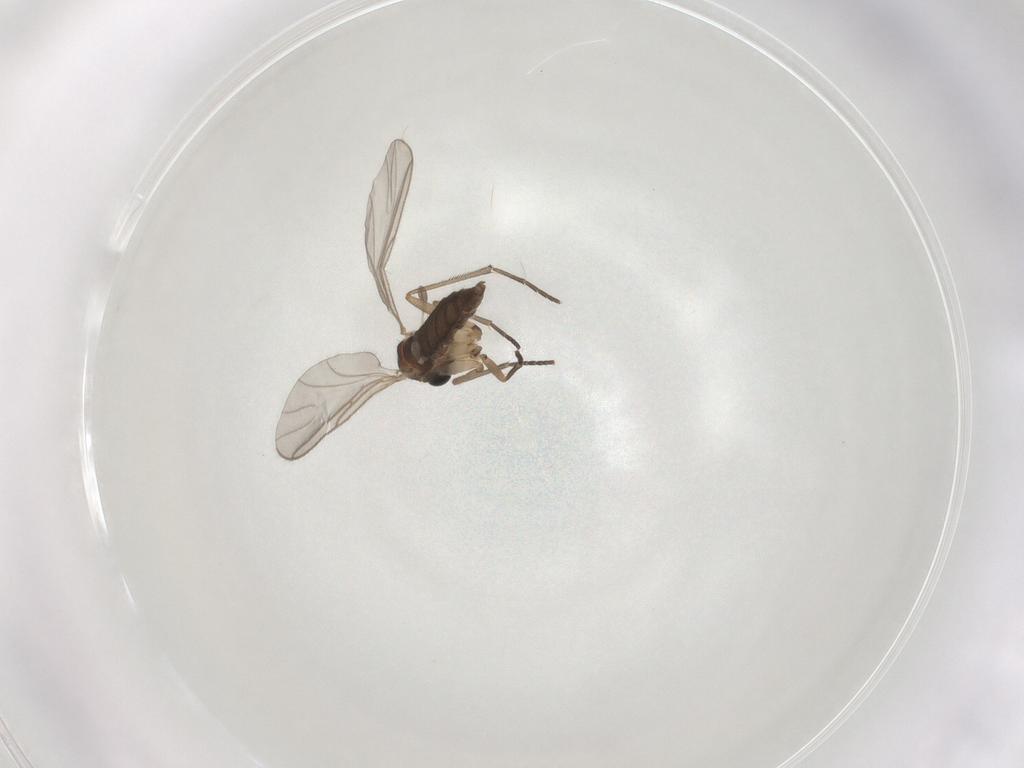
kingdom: Animalia
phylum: Arthropoda
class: Insecta
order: Diptera
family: Sciaridae
